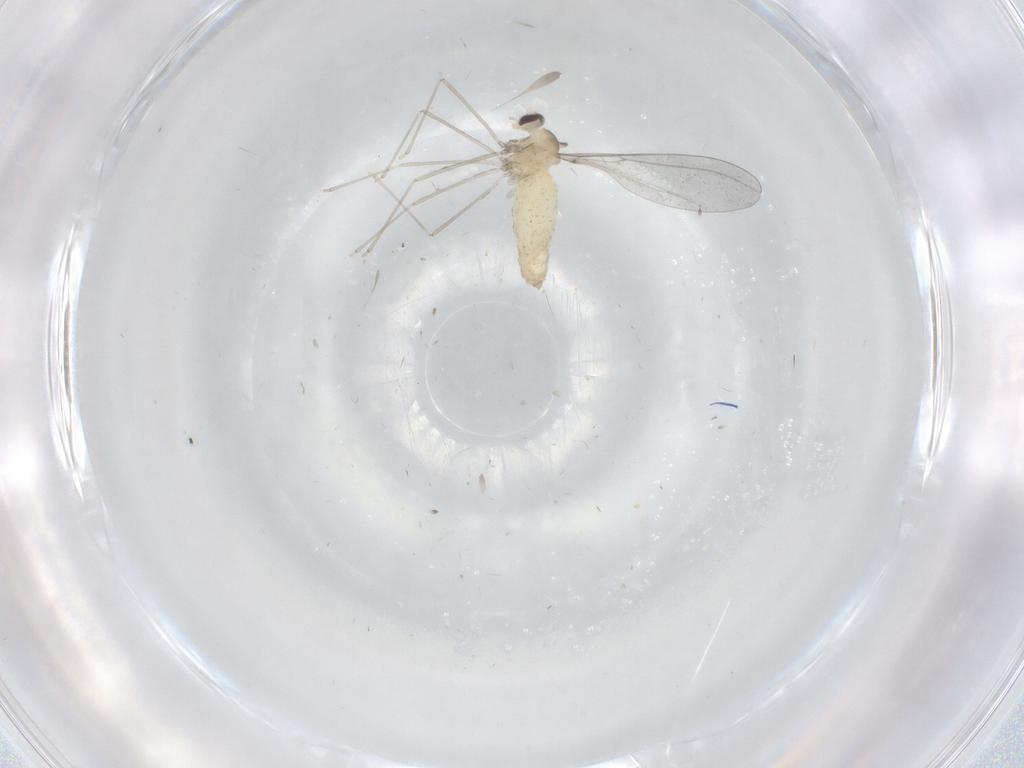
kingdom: Animalia
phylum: Arthropoda
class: Insecta
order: Diptera
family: Cecidomyiidae
